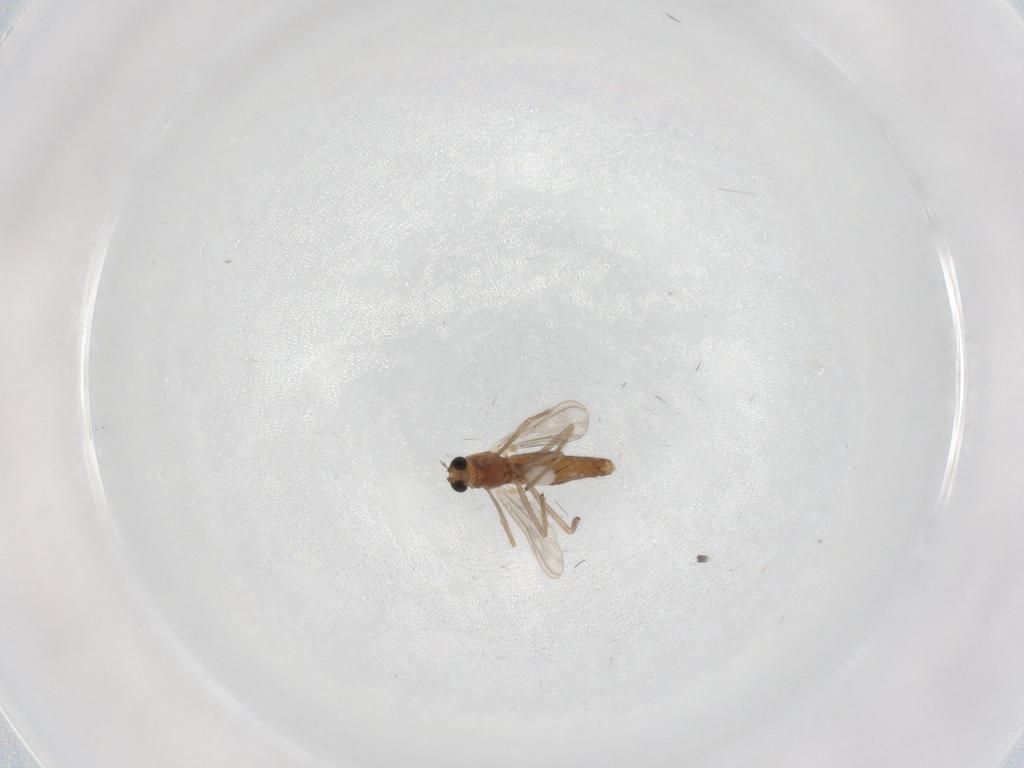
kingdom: Animalia
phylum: Arthropoda
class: Insecta
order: Diptera
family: Chironomidae
